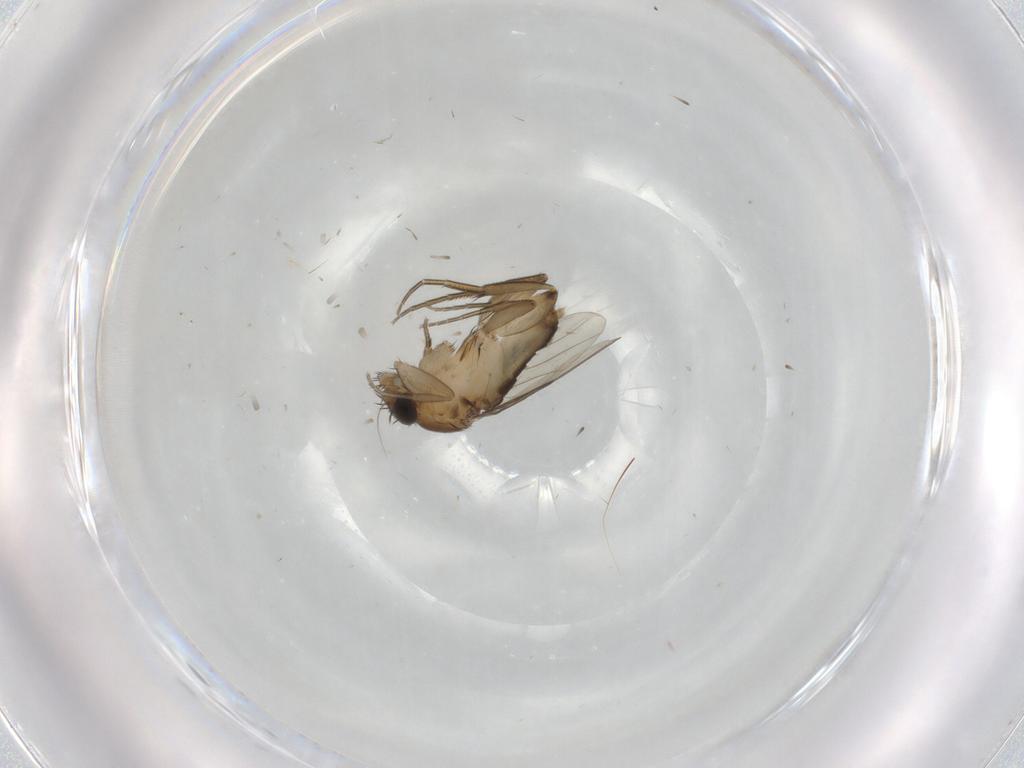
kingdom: Animalia
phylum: Arthropoda
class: Insecta
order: Diptera
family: Phoridae
